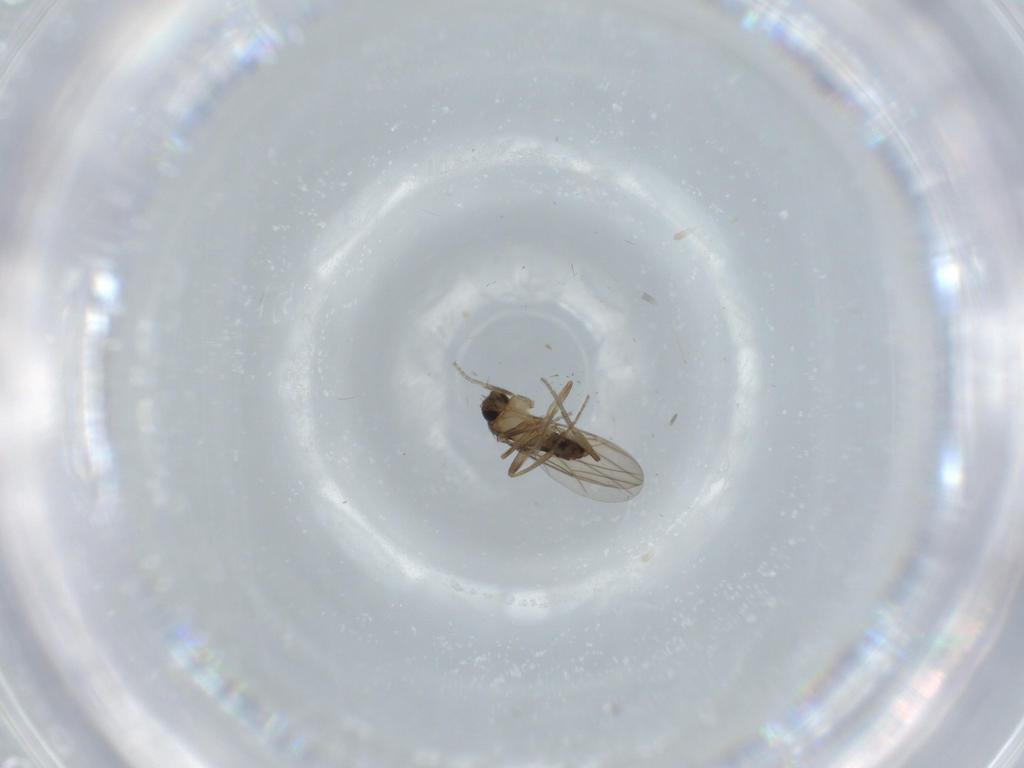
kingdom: Animalia
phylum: Arthropoda
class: Insecta
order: Diptera
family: Phoridae
